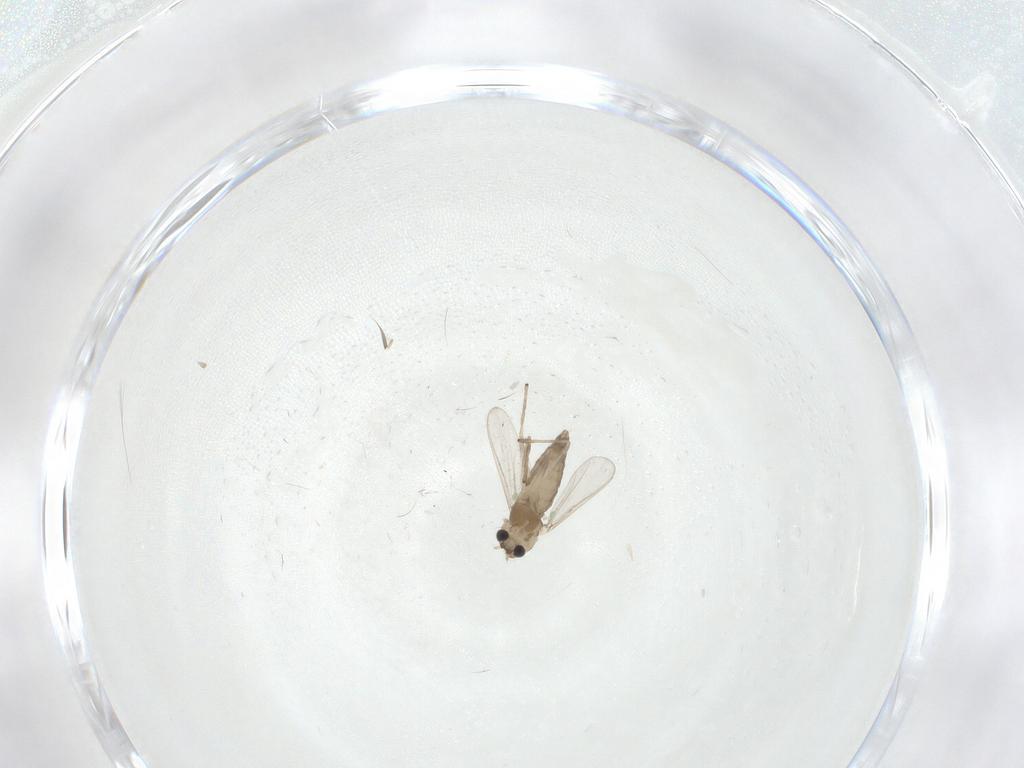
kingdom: Animalia
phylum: Arthropoda
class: Insecta
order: Diptera
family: Chironomidae
